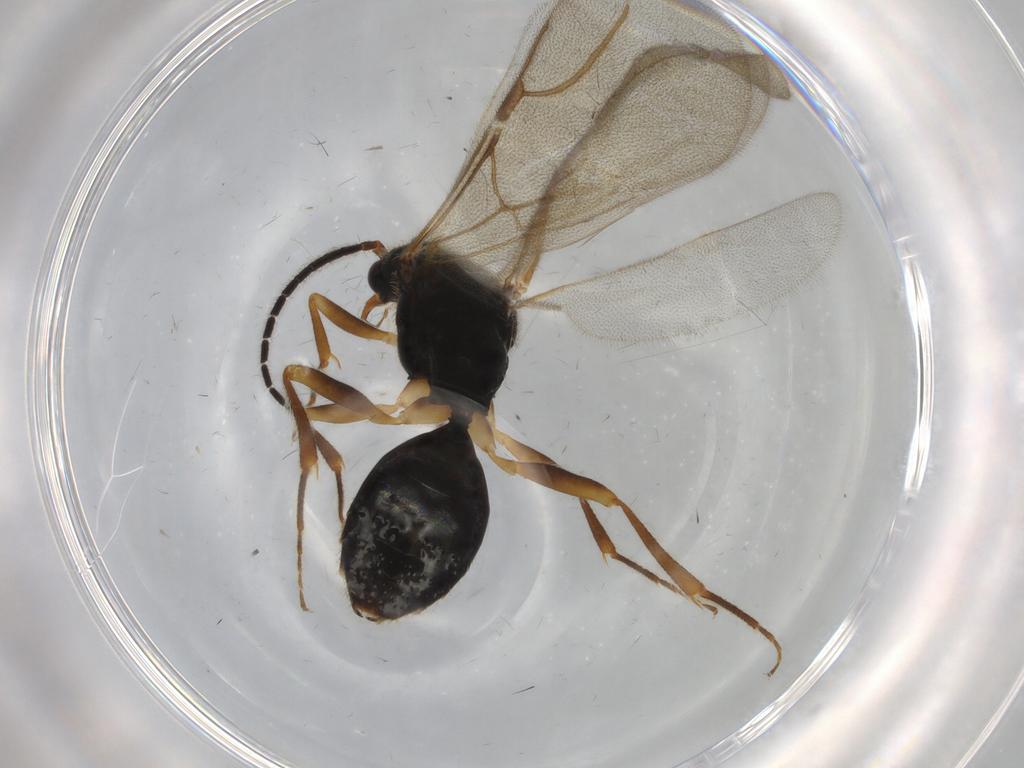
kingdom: Animalia
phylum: Arthropoda
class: Insecta
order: Hymenoptera
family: Bethylidae
